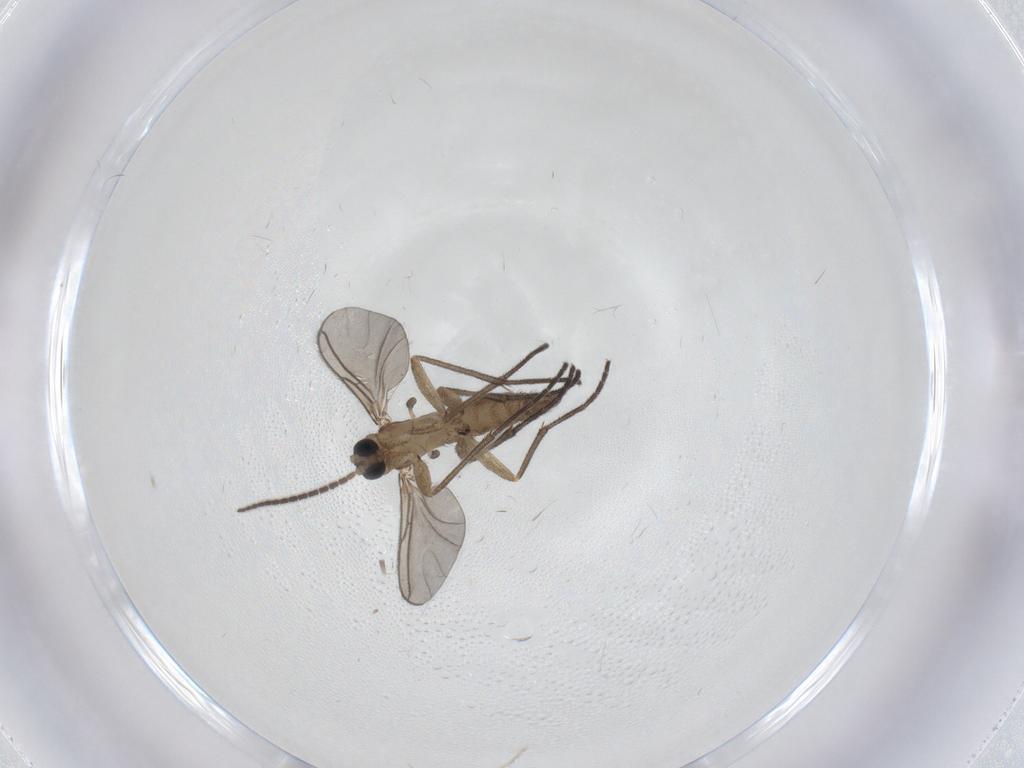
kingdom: Animalia
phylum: Arthropoda
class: Insecta
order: Diptera
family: Sciaridae
